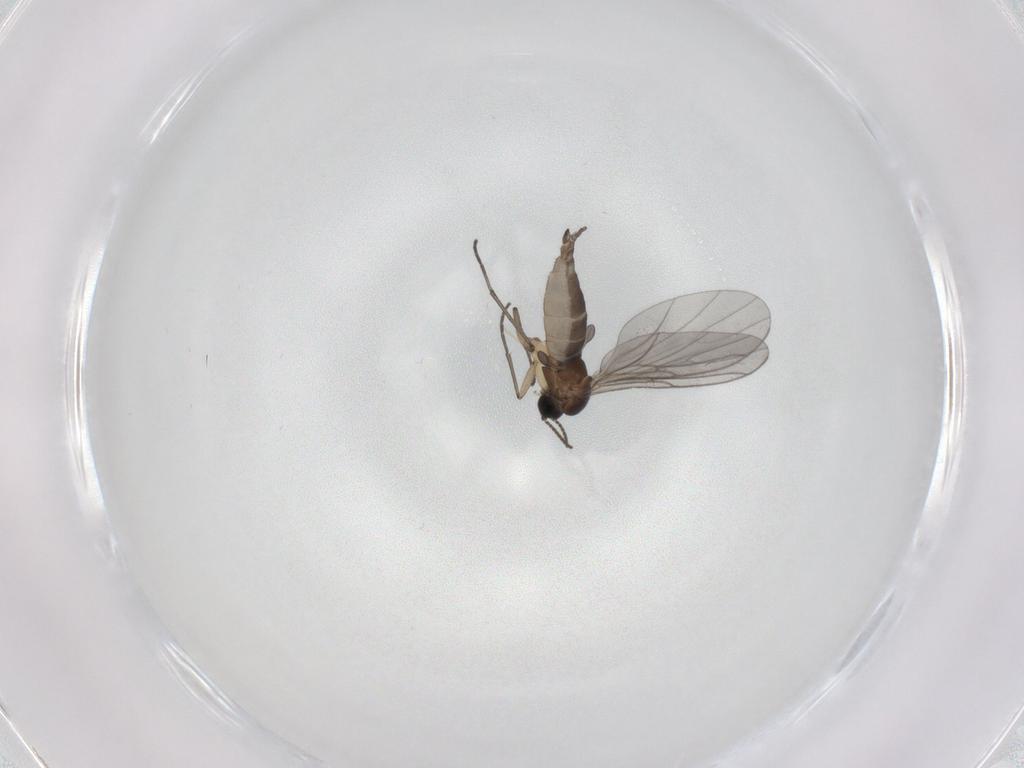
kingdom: Animalia
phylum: Arthropoda
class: Insecta
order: Diptera
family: Sciaridae
